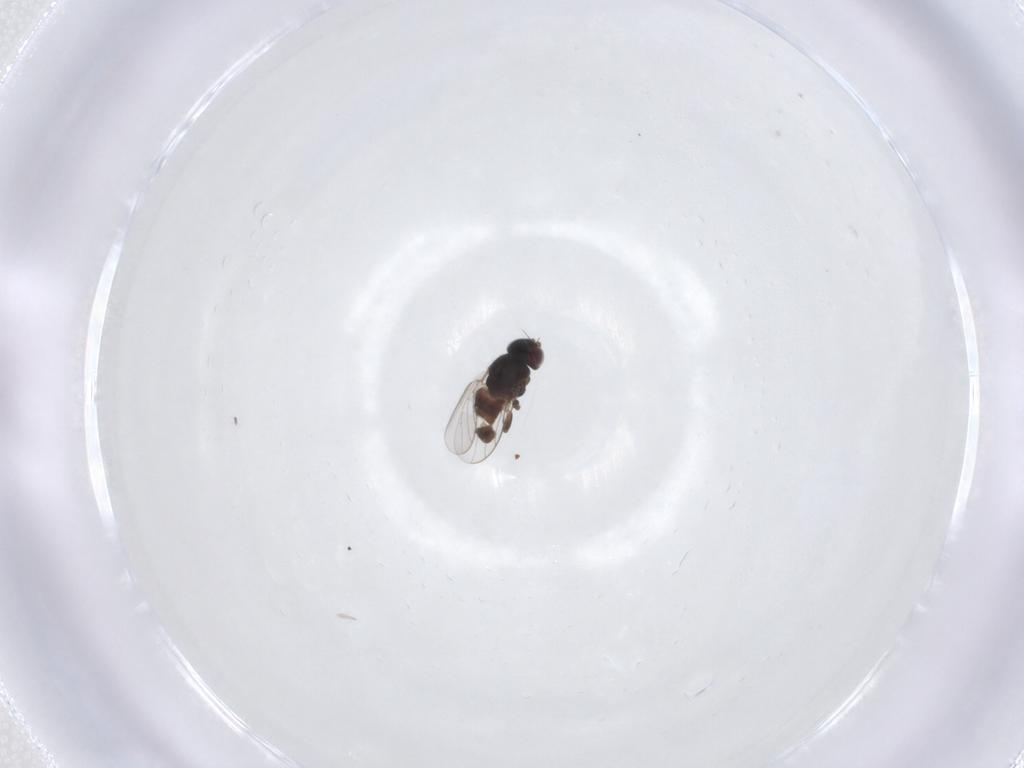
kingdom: Animalia
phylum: Arthropoda
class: Insecta
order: Diptera
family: Chloropidae
